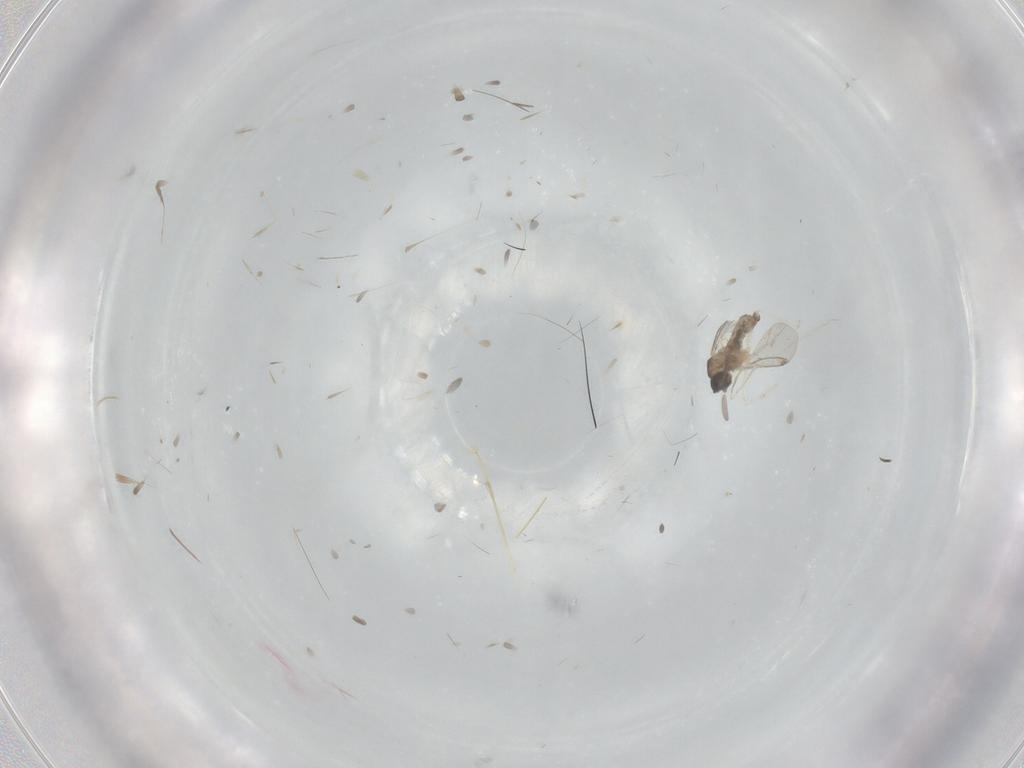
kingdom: Animalia
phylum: Arthropoda
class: Insecta
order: Diptera
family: Cecidomyiidae
